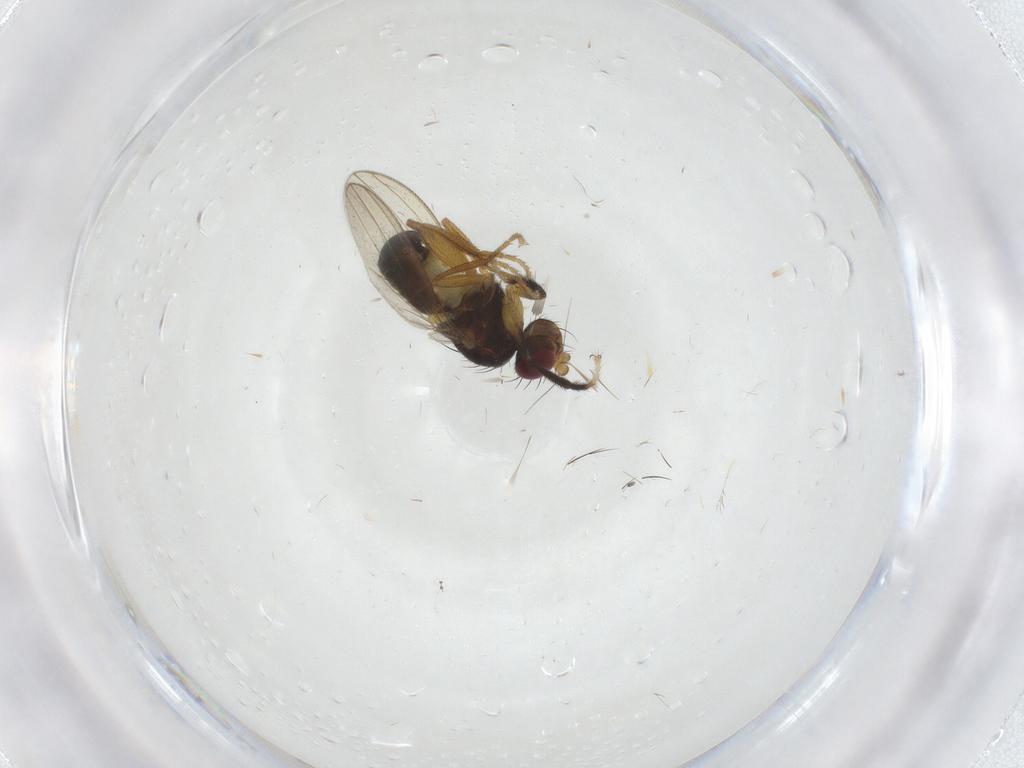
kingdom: Animalia
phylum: Arthropoda
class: Insecta
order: Diptera
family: Cypselosomatidae
